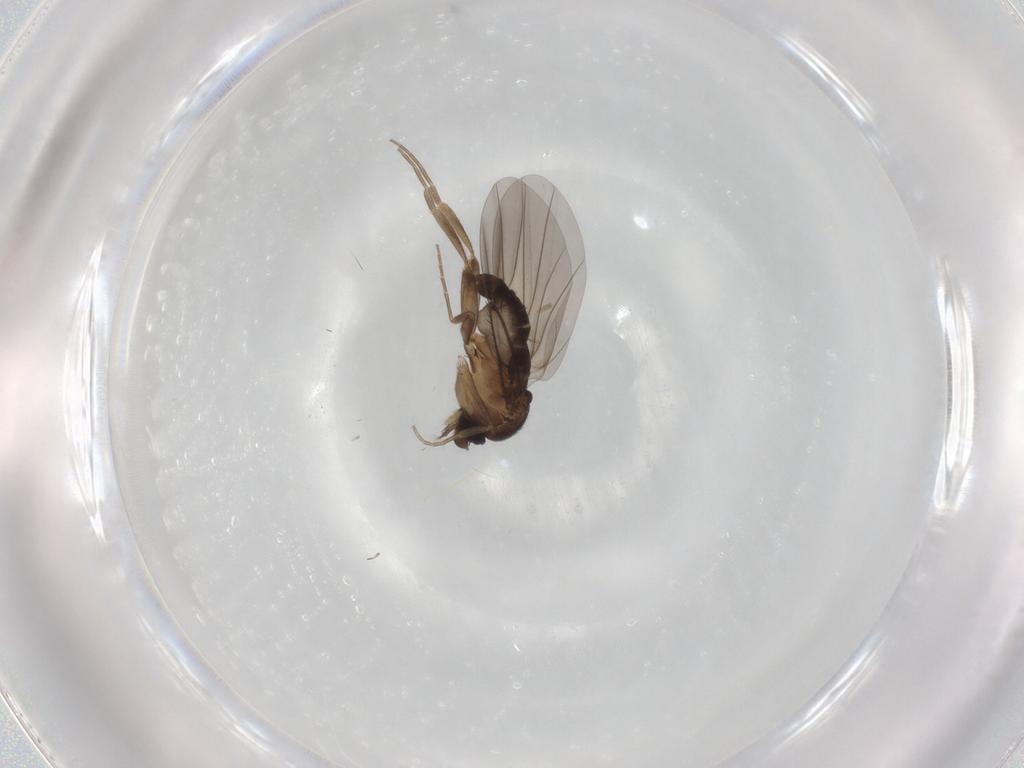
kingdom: Animalia
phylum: Arthropoda
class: Insecta
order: Diptera
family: Phoridae
